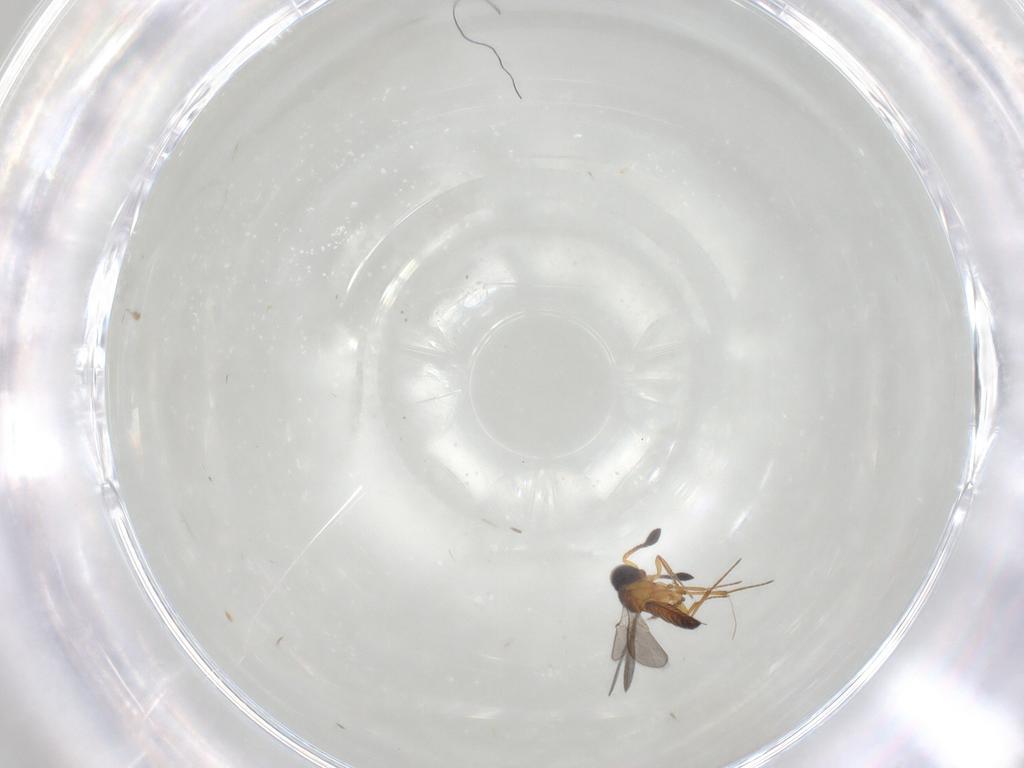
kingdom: Animalia
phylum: Arthropoda
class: Insecta
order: Hymenoptera
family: Scelionidae
